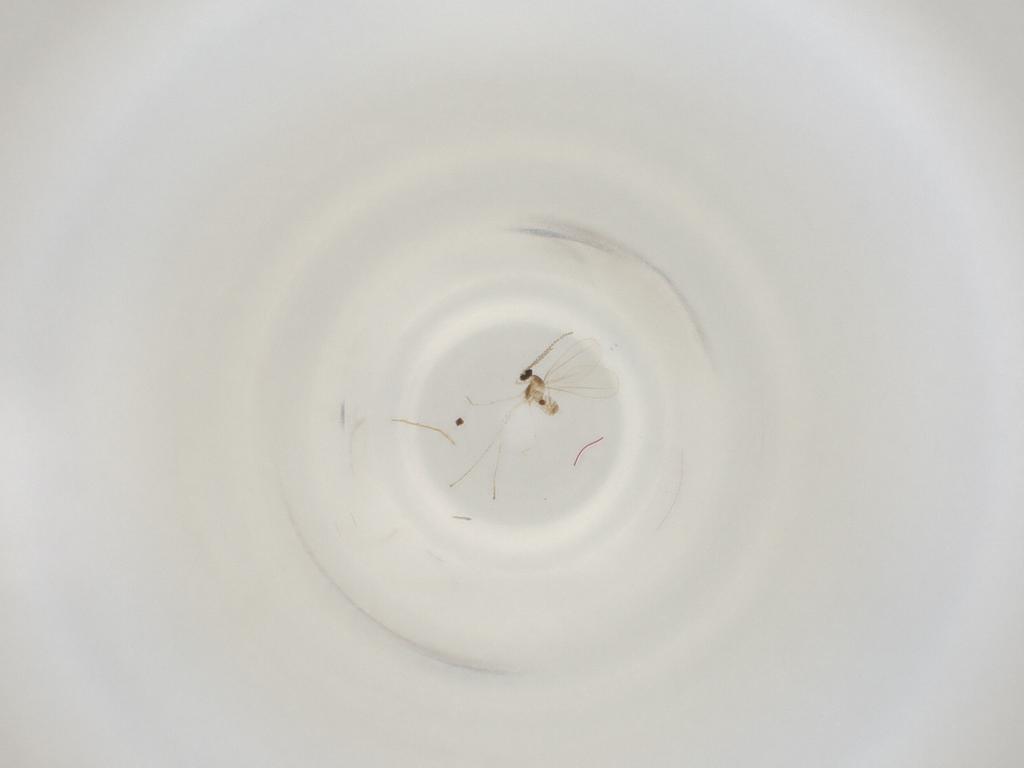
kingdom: Animalia
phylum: Arthropoda
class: Insecta
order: Diptera
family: Cecidomyiidae
